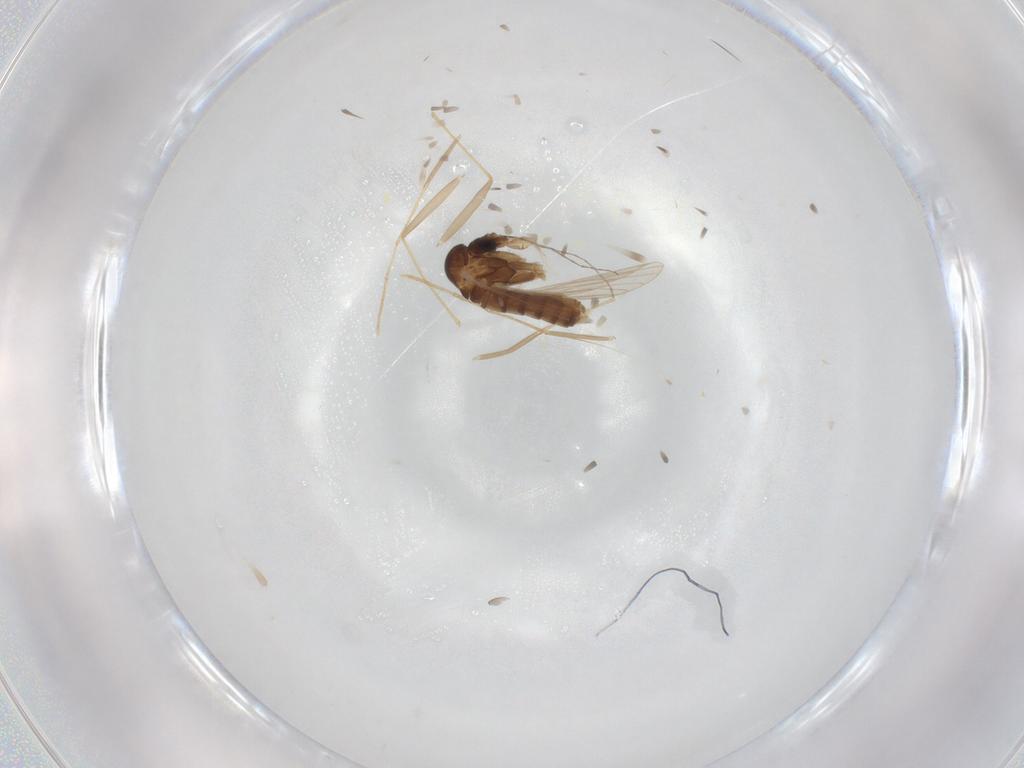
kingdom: Animalia
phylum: Arthropoda
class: Insecta
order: Diptera
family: Psychodidae
